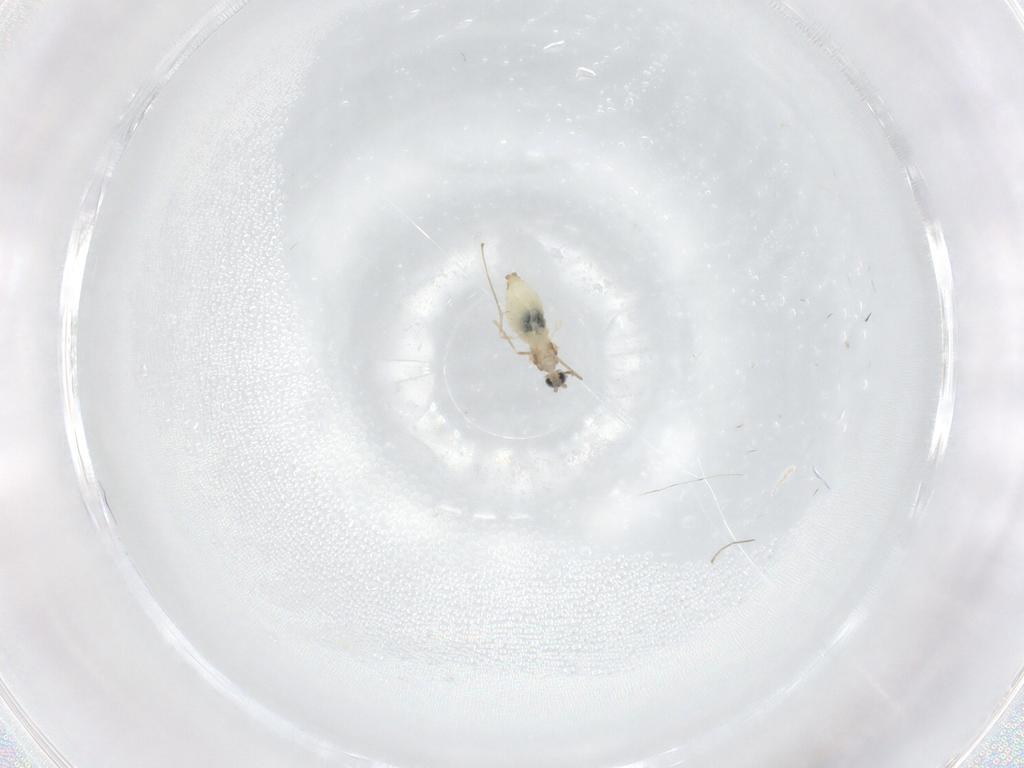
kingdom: Animalia
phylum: Arthropoda
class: Insecta
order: Diptera
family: Cecidomyiidae
